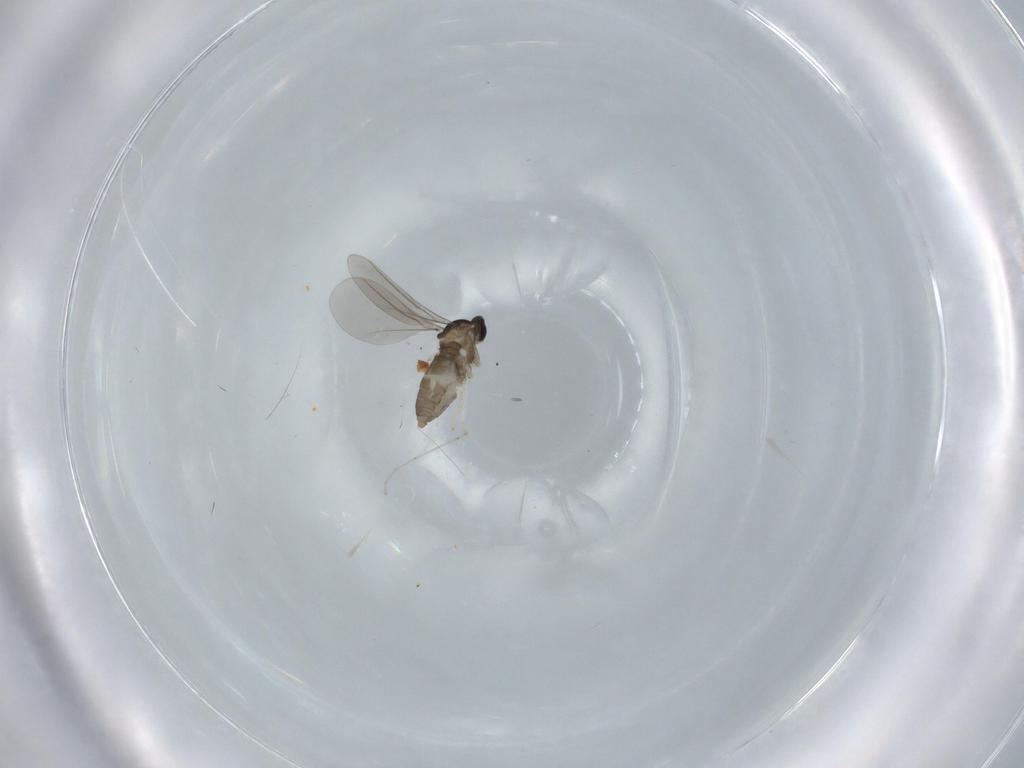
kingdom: Animalia
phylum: Arthropoda
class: Insecta
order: Diptera
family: Cecidomyiidae
